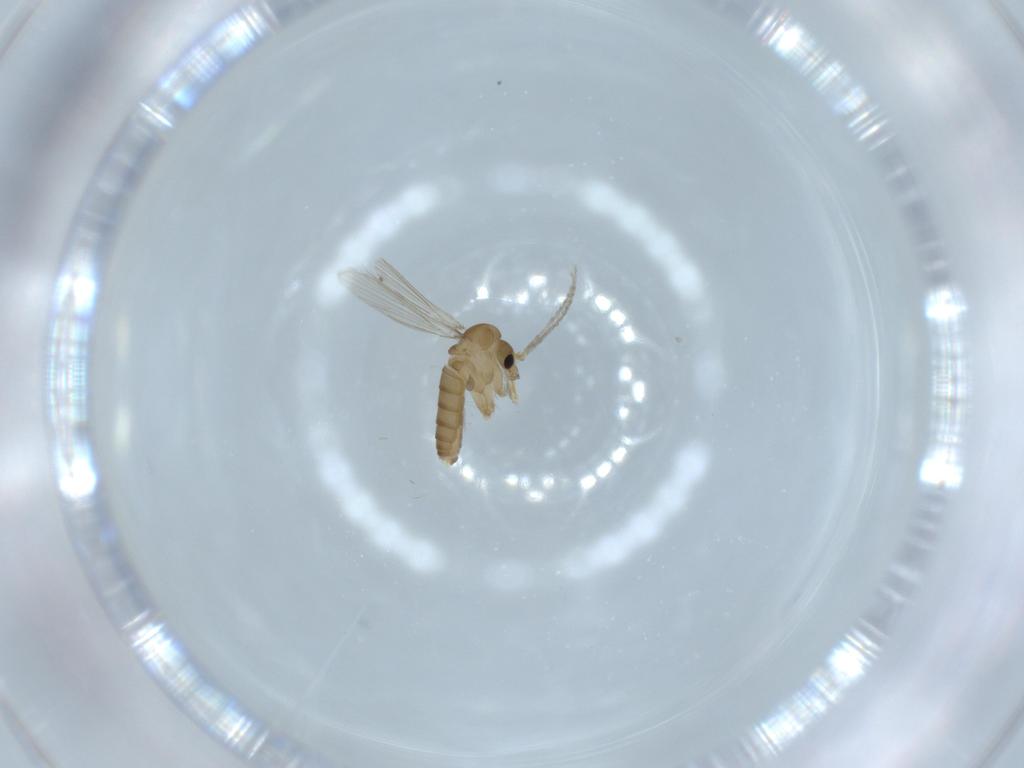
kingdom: Animalia
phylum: Arthropoda
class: Insecta
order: Diptera
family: Psychodidae
